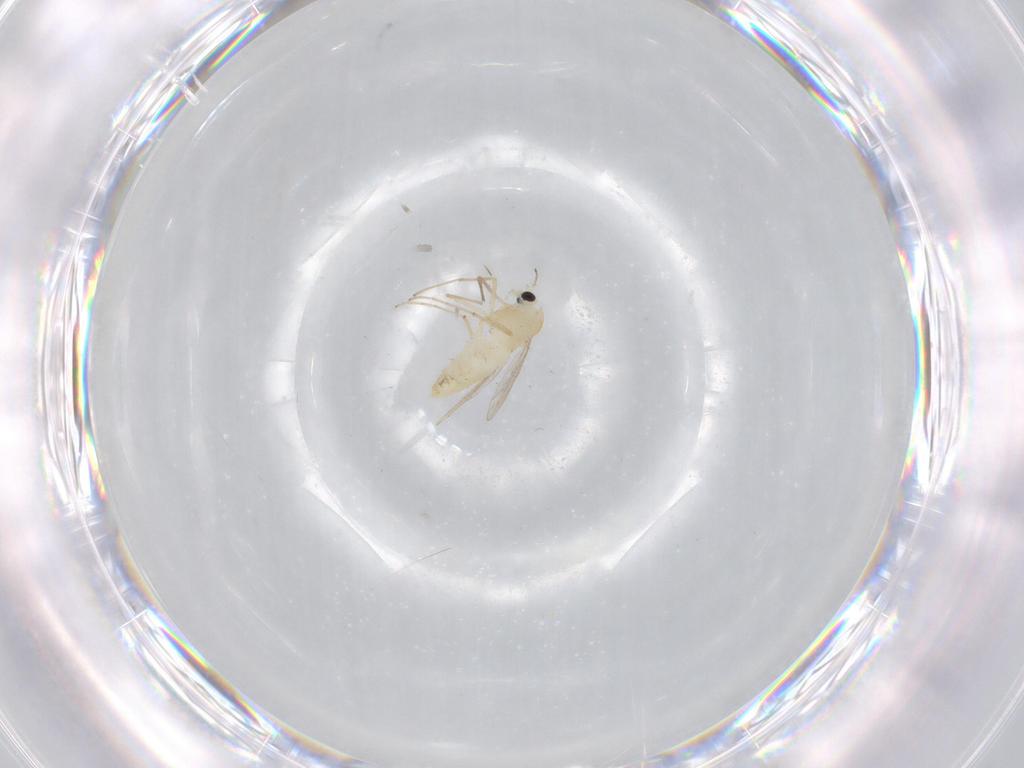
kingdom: Animalia
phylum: Arthropoda
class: Insecta
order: Diptera
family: Chironomidae
